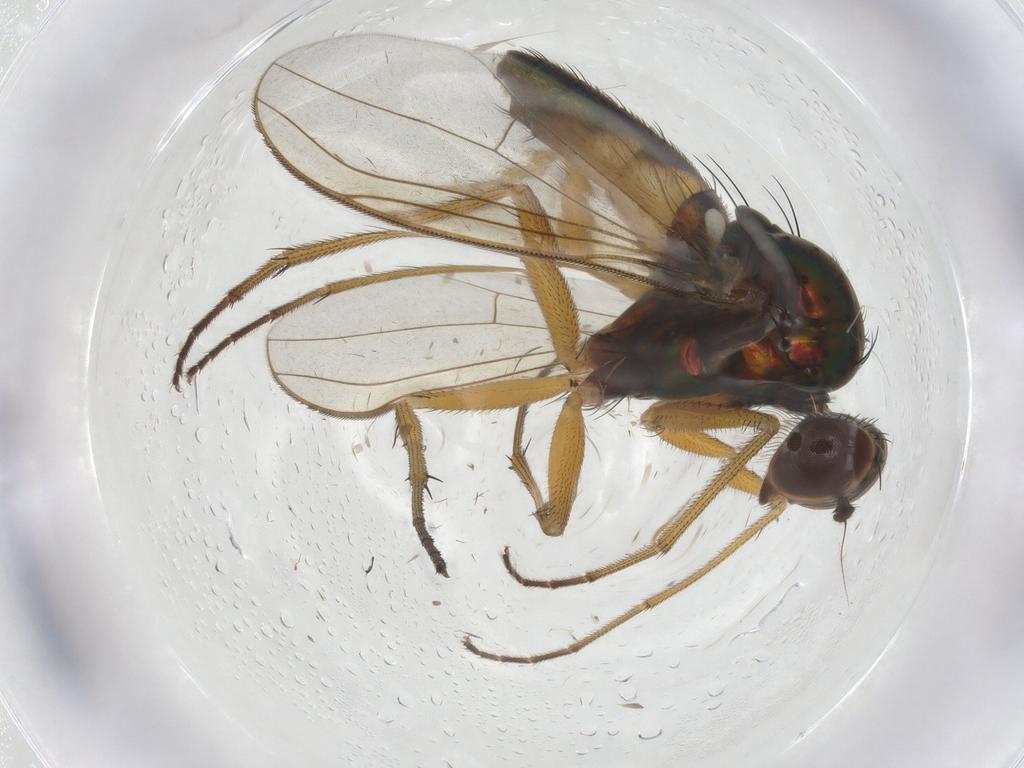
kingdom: Animalia
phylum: Arthropoda
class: Insecta
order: Diptera
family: Cecidomyiidae
